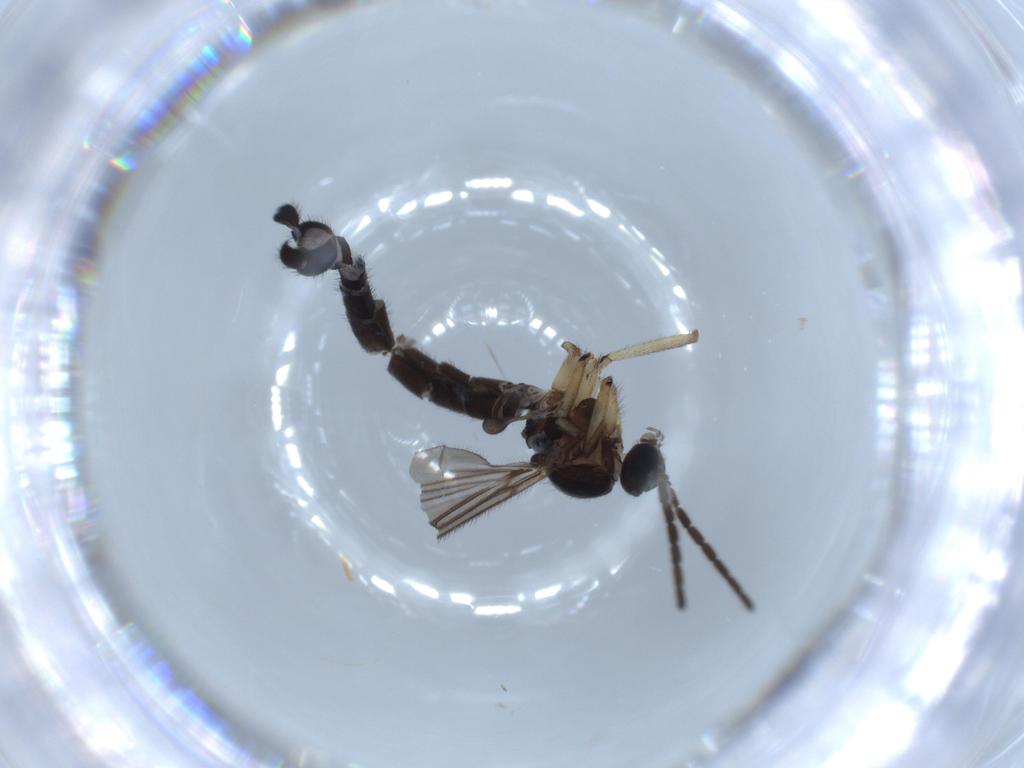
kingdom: Animalia
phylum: Arthropoda
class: Insecta
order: Diptera
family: Sciaridae
